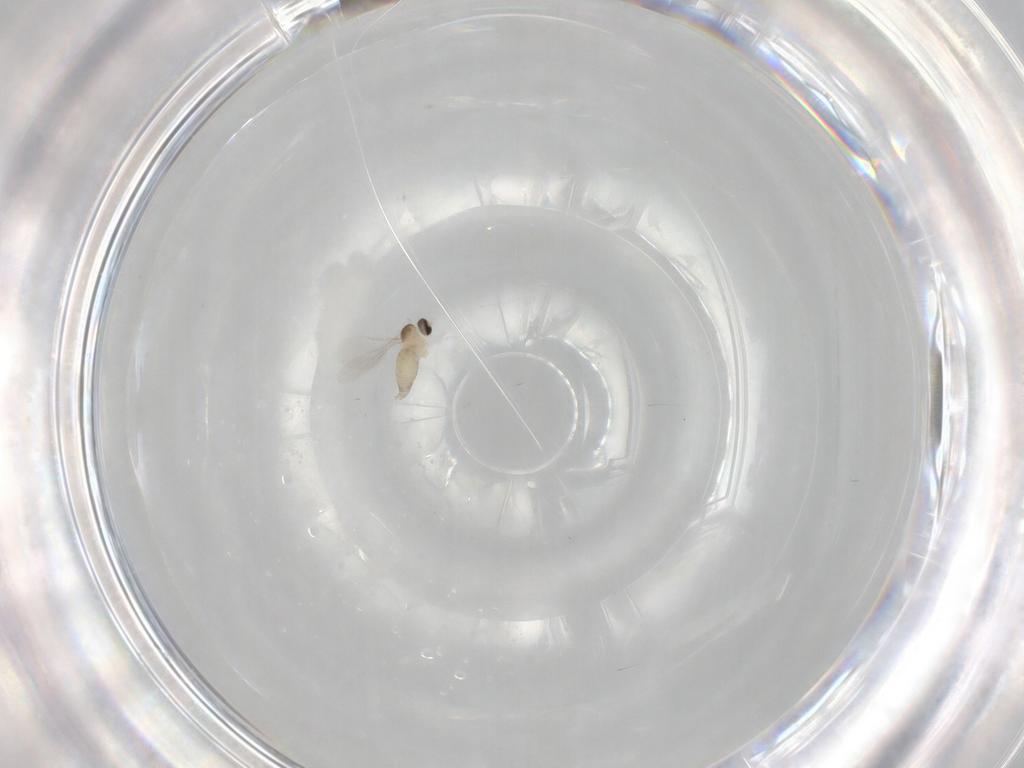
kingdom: Animalia
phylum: Arthropoda
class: Insecta
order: Diptera
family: Cecidomyiidae
